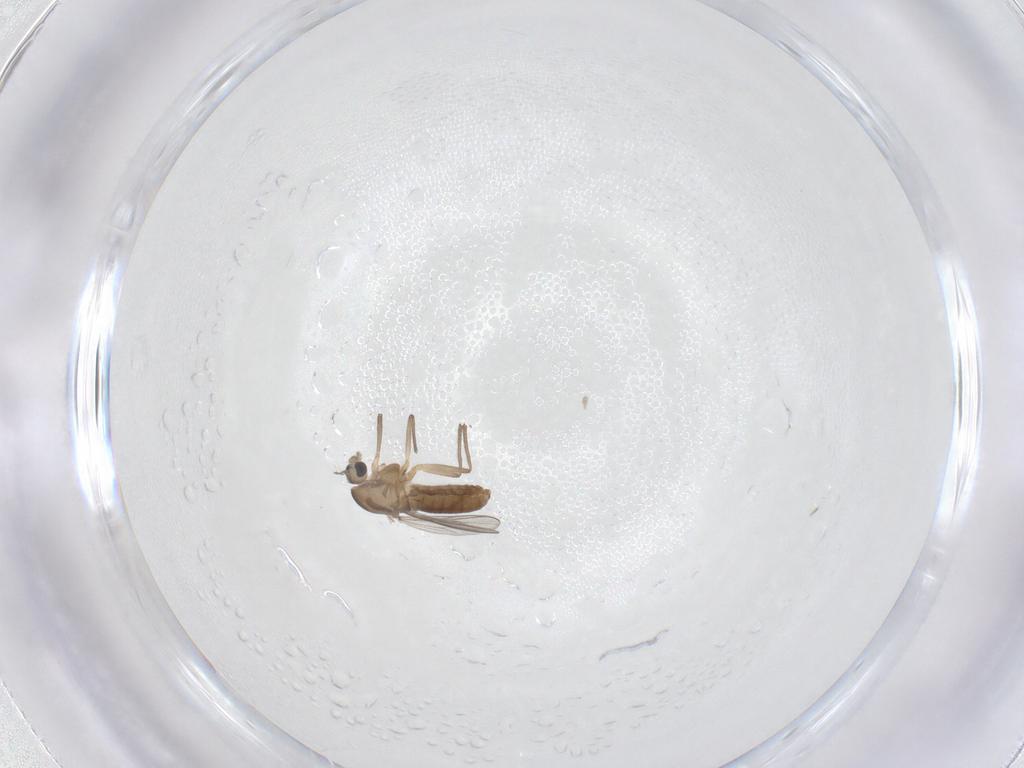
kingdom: Animalia
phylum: Arthropoda
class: Insecta
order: Diptera
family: Chironomidae
